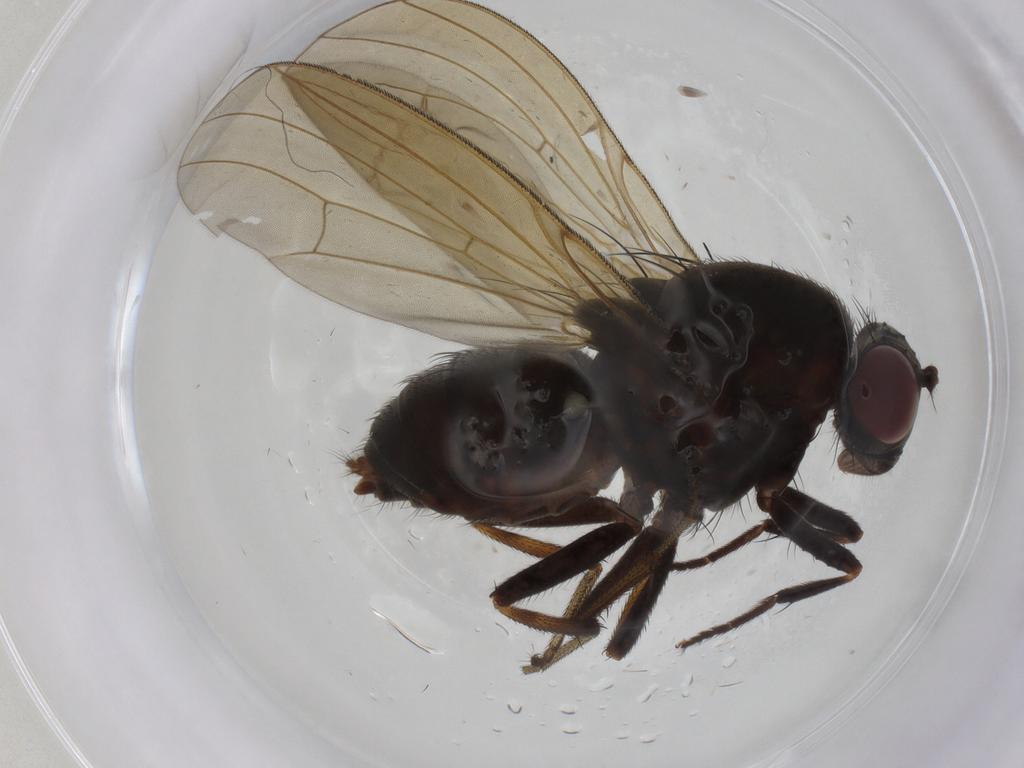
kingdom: Animalia
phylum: Arthropoda
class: Insecta
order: Diptera
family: Tipulidae
